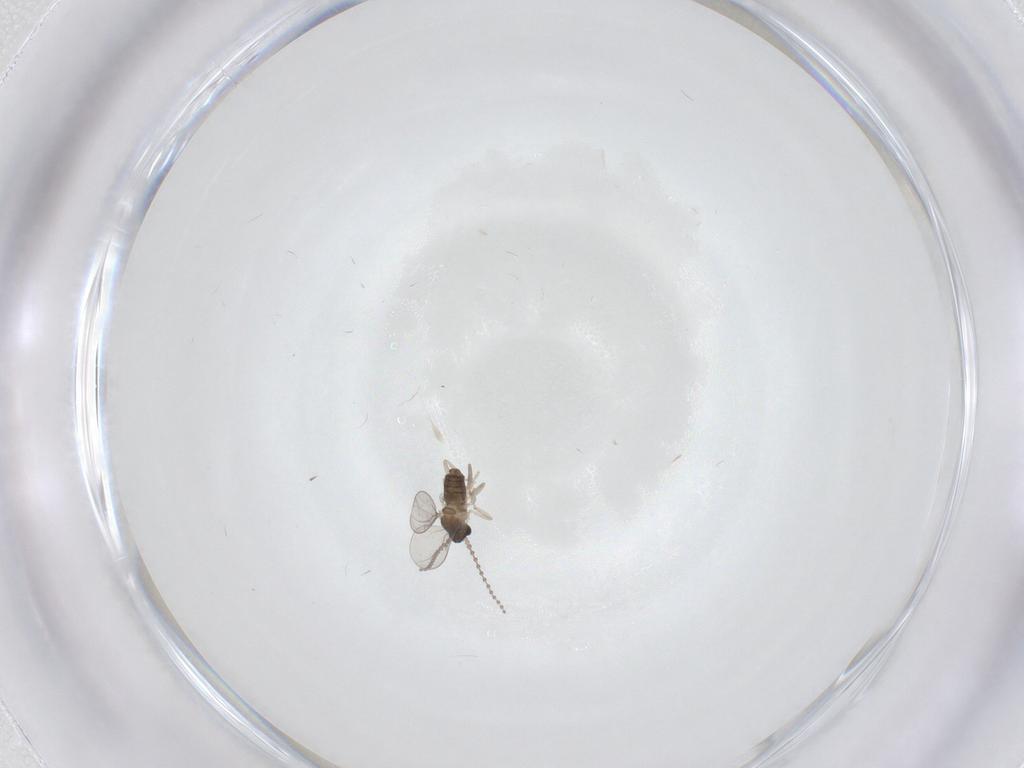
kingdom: Animalia
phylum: Arthropoda
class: Insecta
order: Diptera
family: Cecidomyiidae
